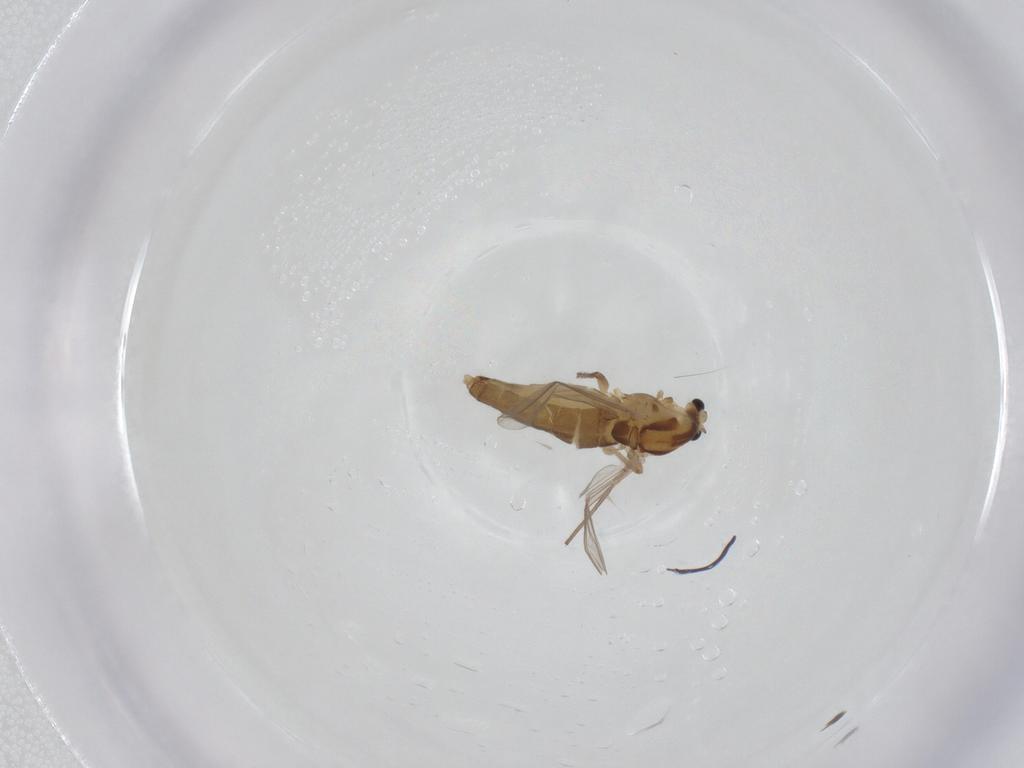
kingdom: Animalia
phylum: Arthropoda
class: Insecta
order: Diptera
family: Chironomidae
